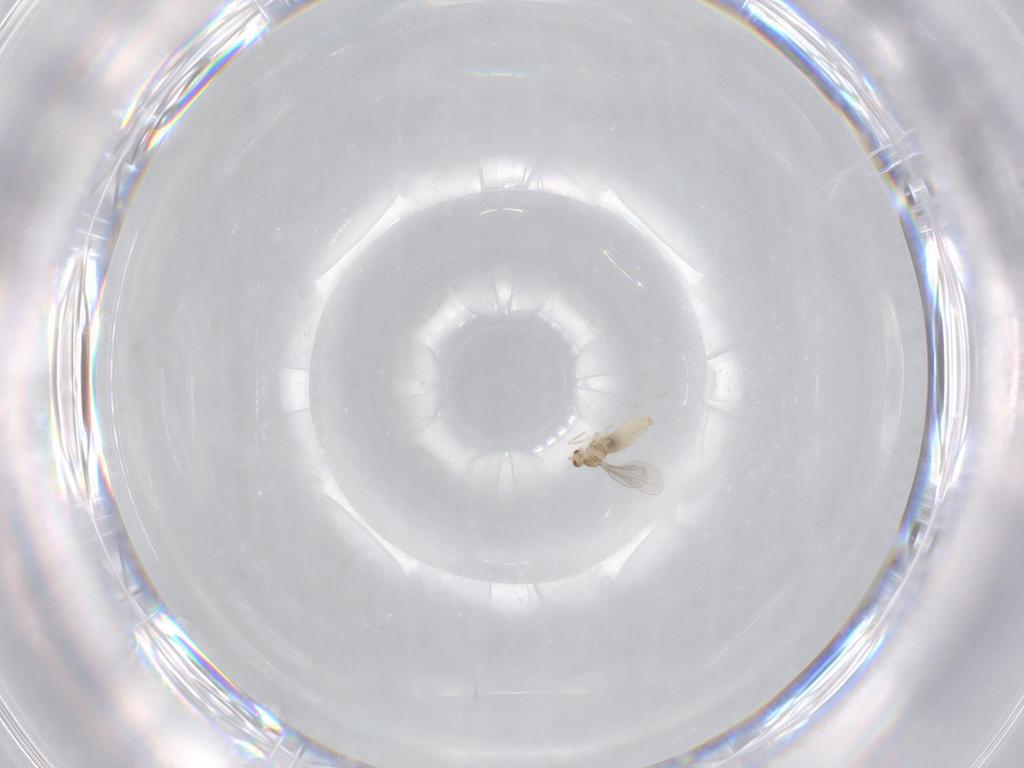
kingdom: Animalia
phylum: Arthropoda
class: Insecta
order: Diptera
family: Cecidomyiidae
